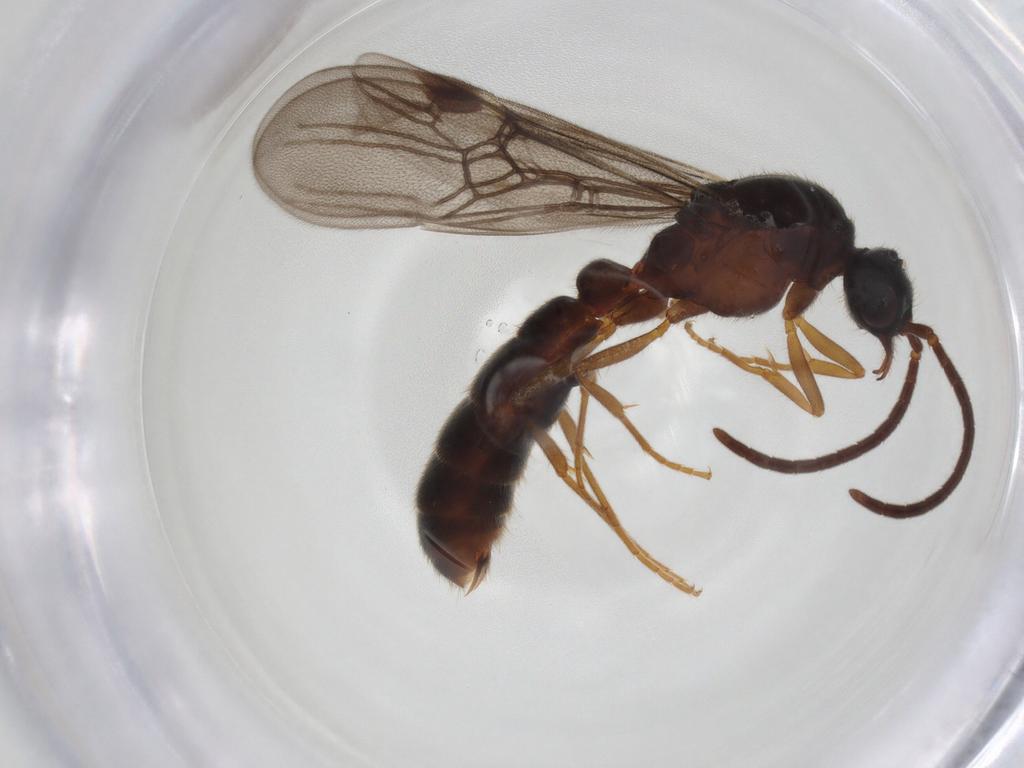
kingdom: Animalia
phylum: Arthropoda
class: Insecta
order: Hymenoptera
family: Formicidae
